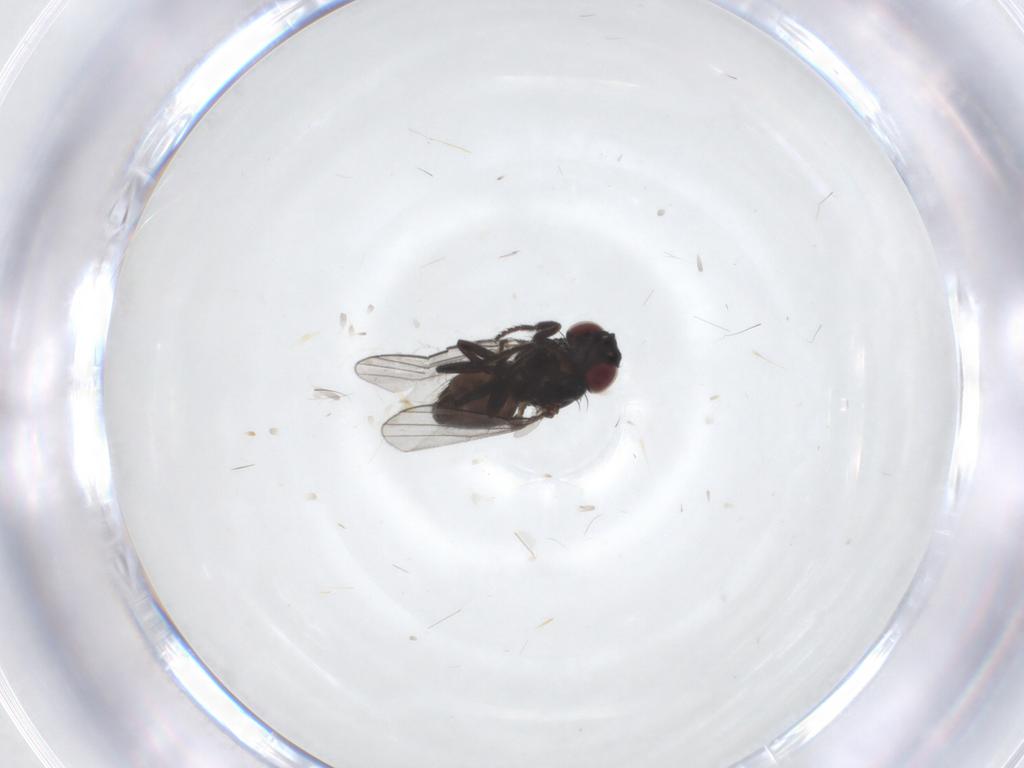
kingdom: Animalia
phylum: Arthropoda
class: Insecta
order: Diptera
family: Milichiidae
